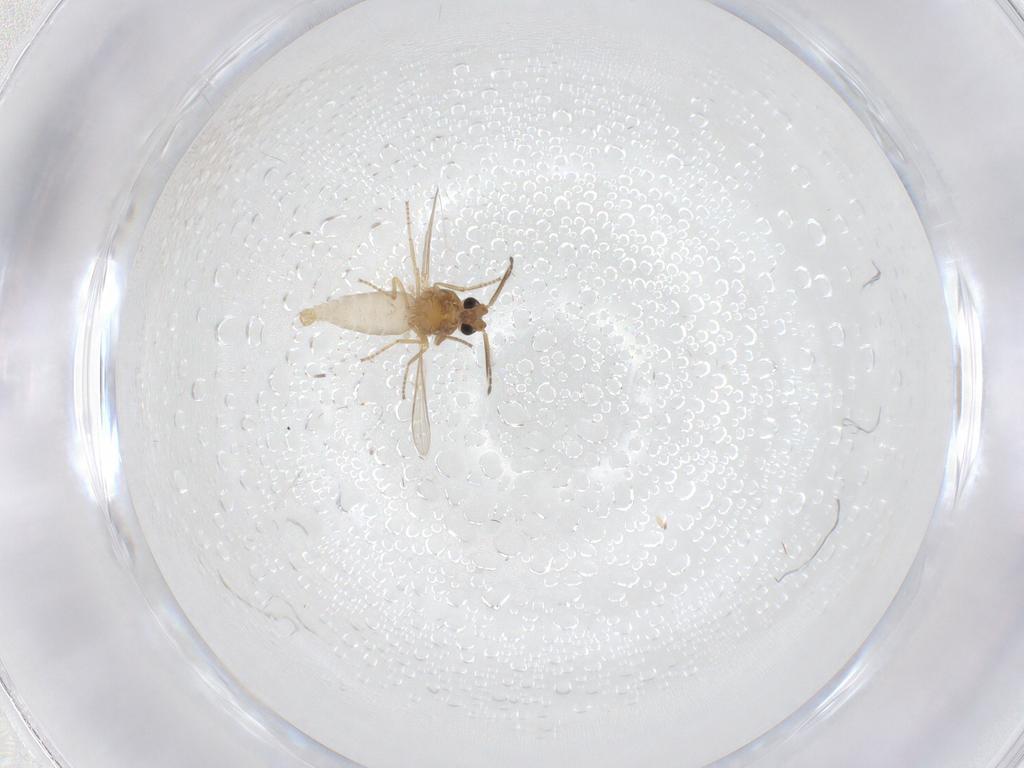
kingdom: Animalia
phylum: Arthropoda
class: Insecta
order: Diptera
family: Ceratopogonidae
